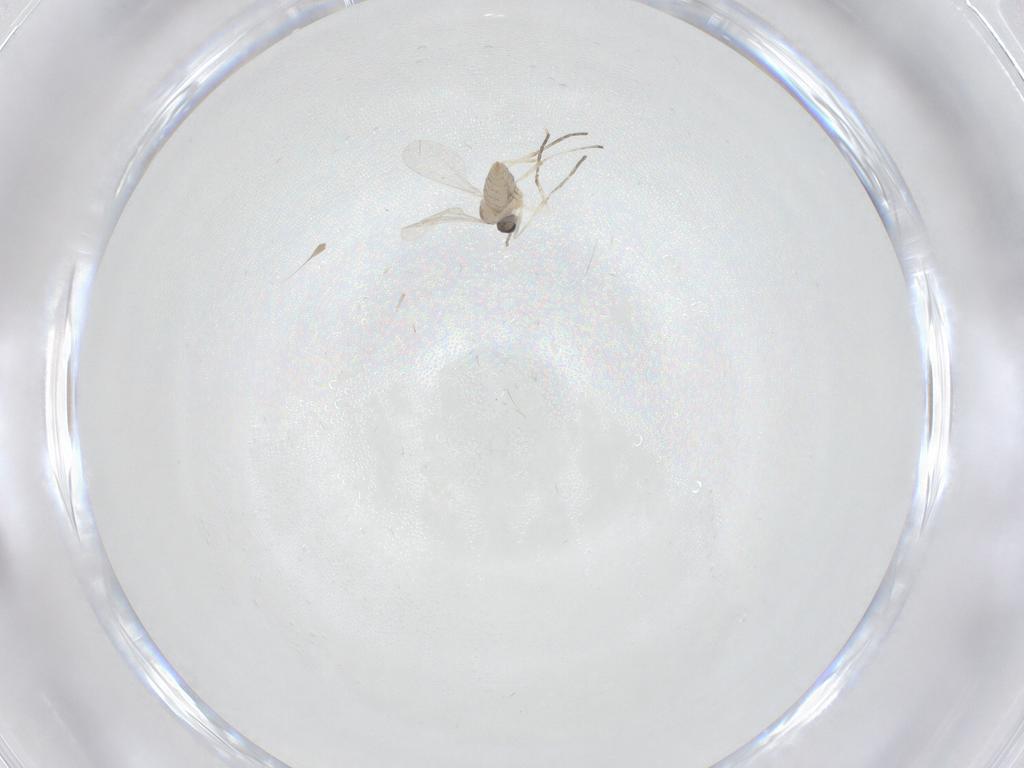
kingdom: Animalia
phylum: Arthropoda
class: Insecta
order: Diptera
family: Cecidomyiidae
